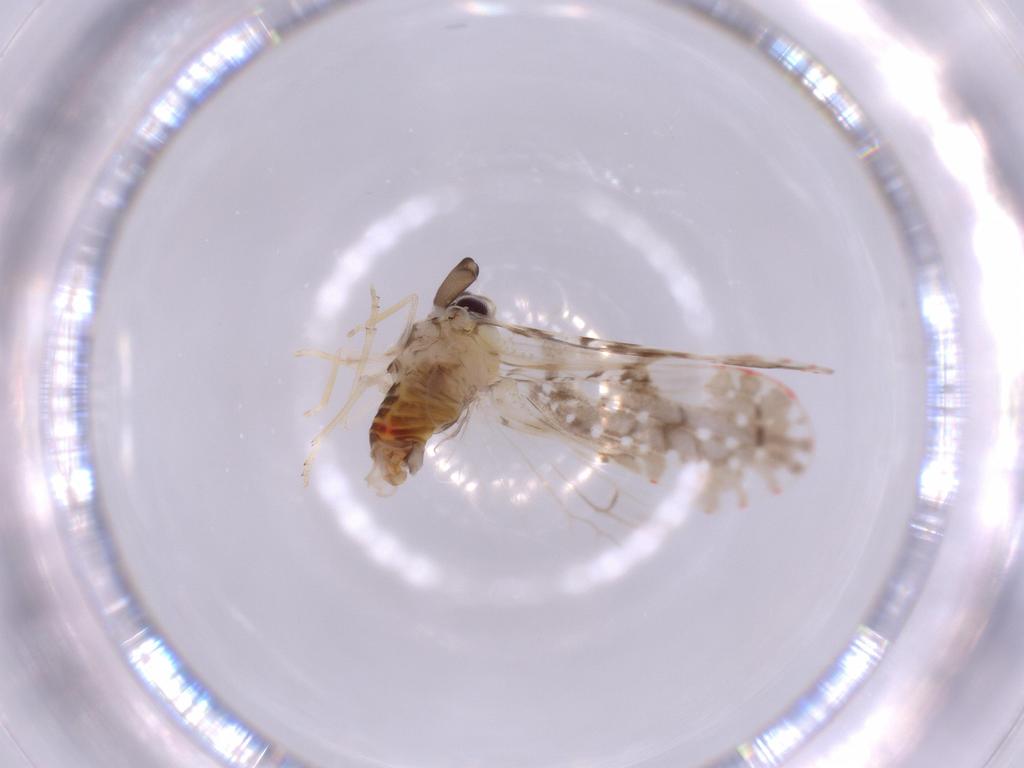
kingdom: Animalia
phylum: Arthropoda
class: Insecta
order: Hemiptera
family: Derbidae
